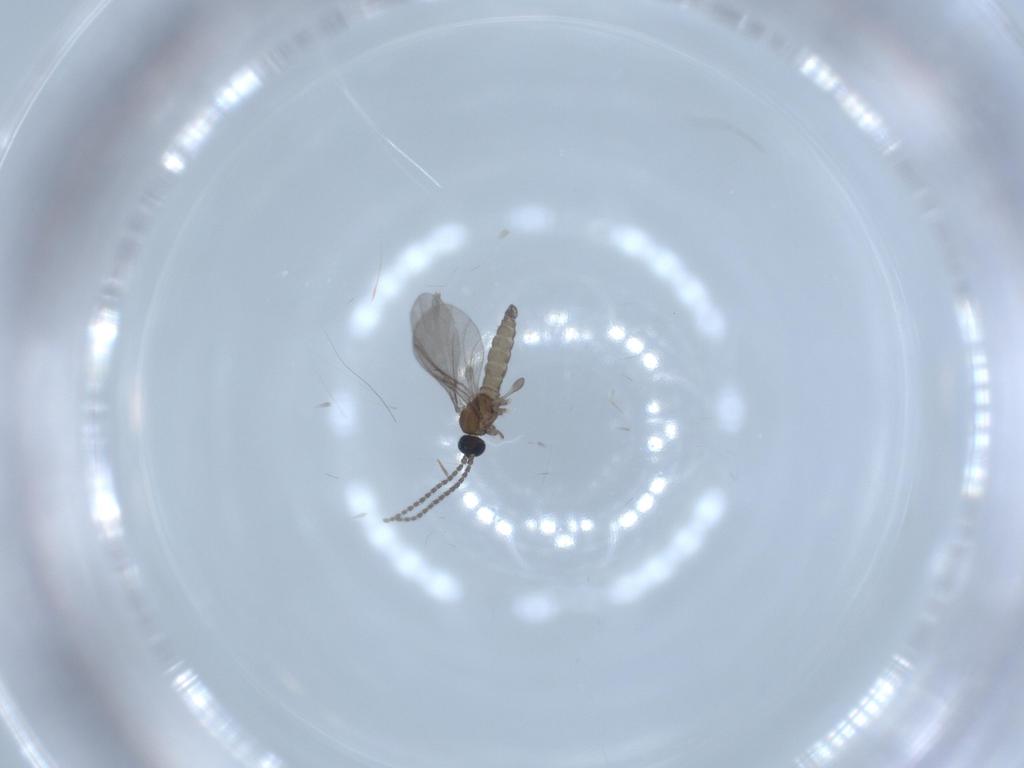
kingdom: Animalia
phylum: Arthropoda
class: Insecta
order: Diptera
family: Sciaridae
